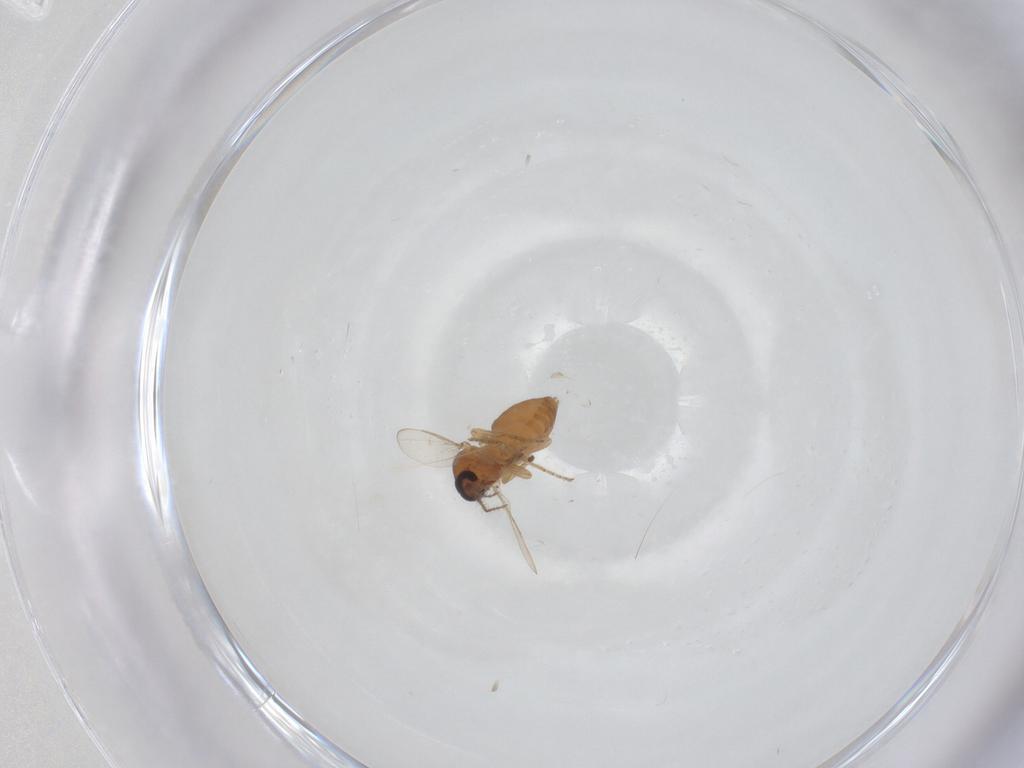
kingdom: Animalia
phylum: Arthropoda
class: Insecta
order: Diptera
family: Ceratopogonidae
